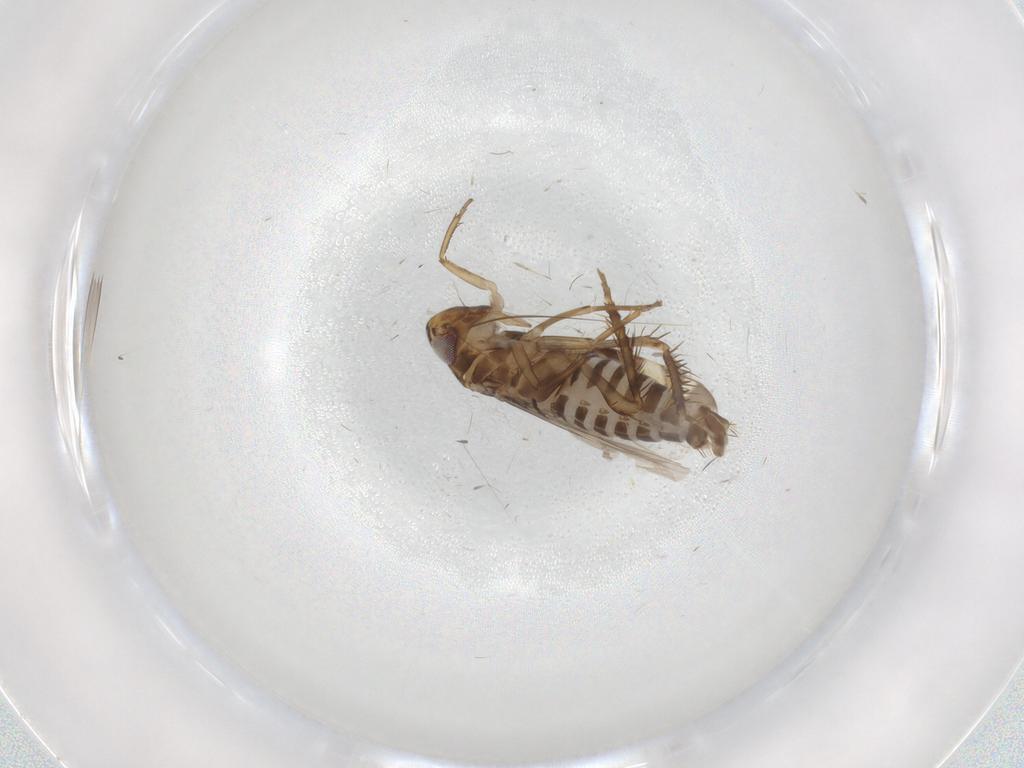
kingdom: Animalia
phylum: Arthropoda
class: Insecta
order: Hemiptera
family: Cicadellidae
